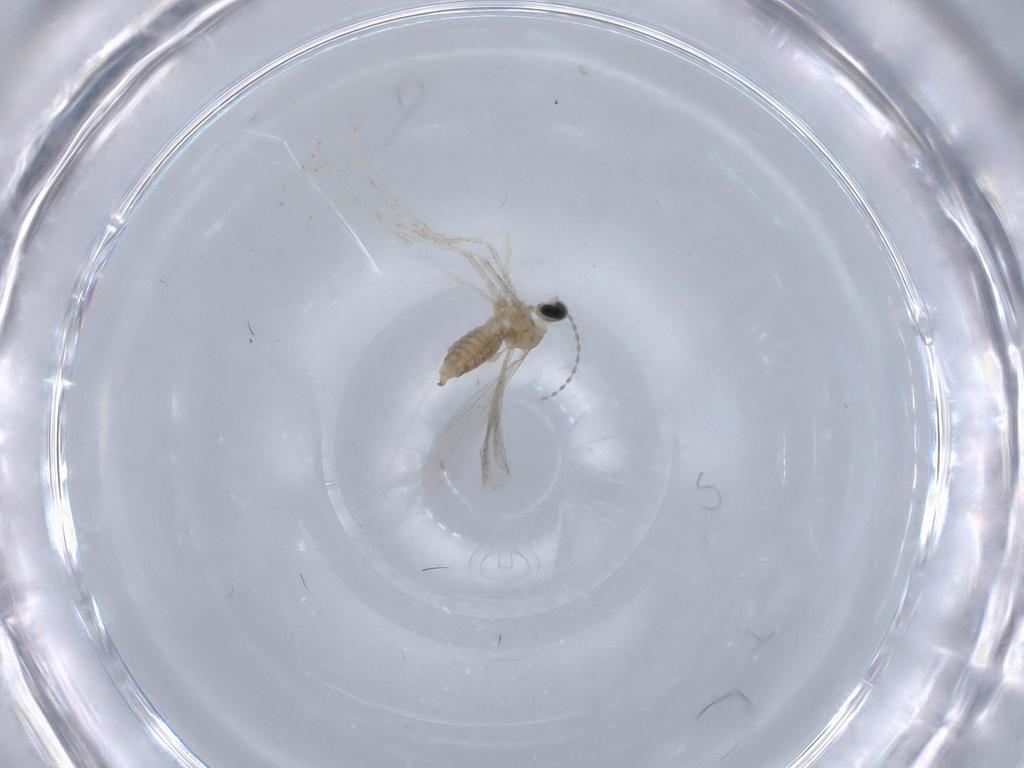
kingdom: Animalia
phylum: Arthropoda
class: Insecta
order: Diptera
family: Cecidomyiidae
